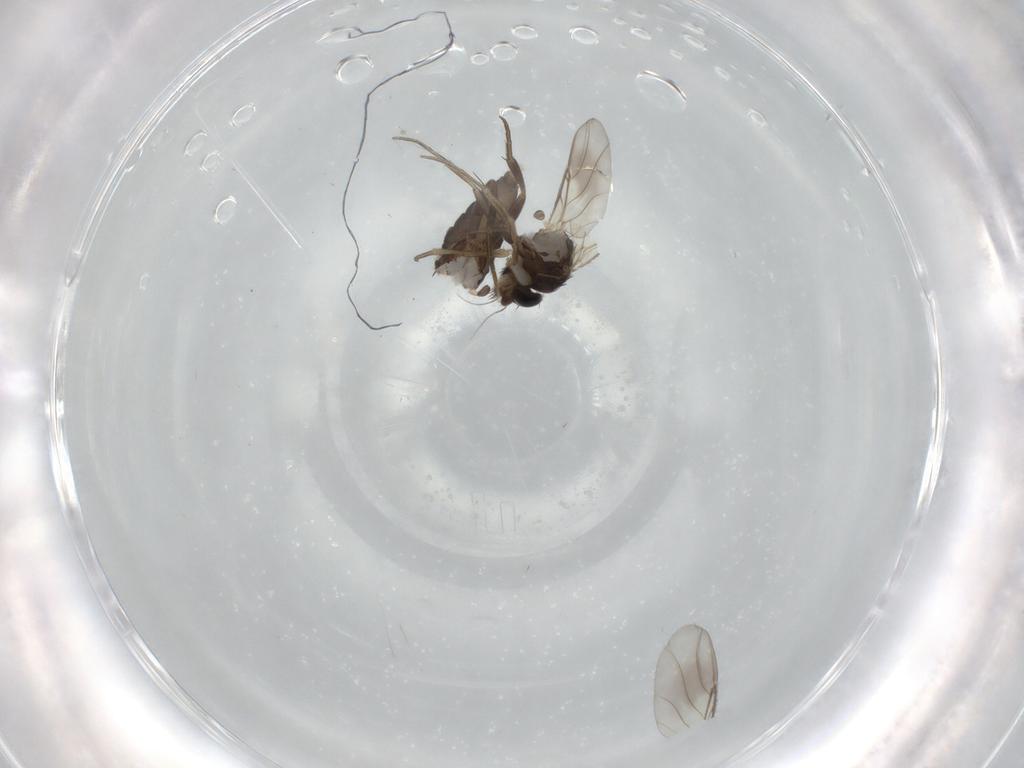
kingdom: Animalia
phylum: Arthropoda
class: Insecta
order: Diptera
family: Phoridae
